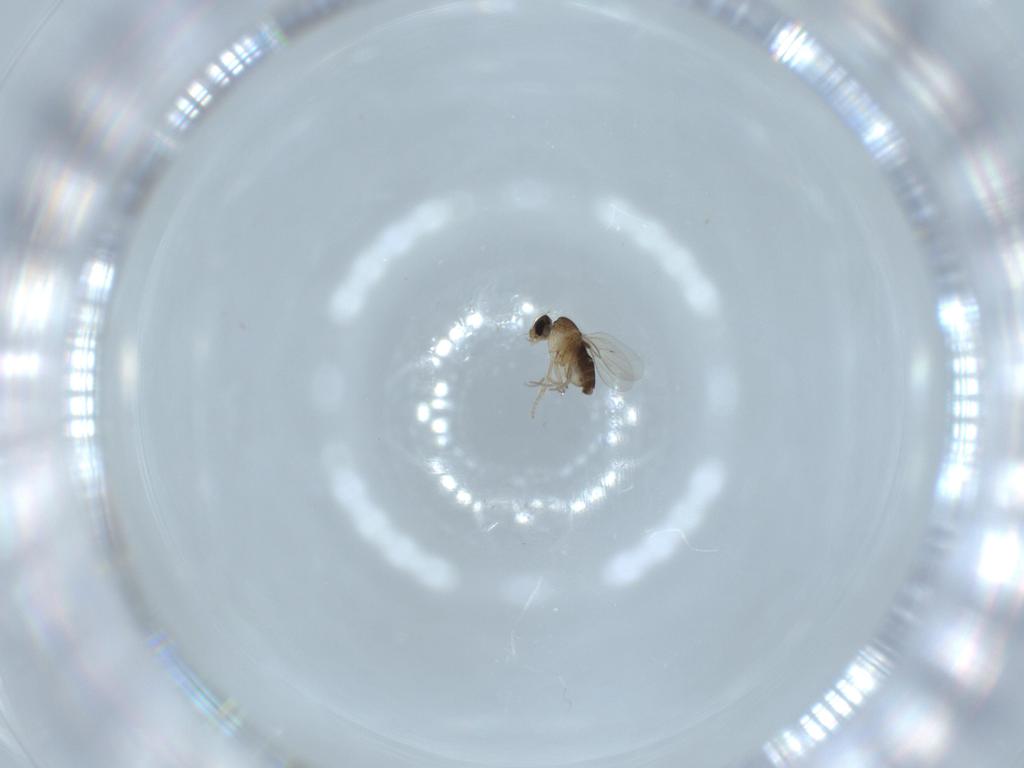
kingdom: Animalia
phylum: Arthropoda
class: Insecta
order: Diptera
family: Phoridae
